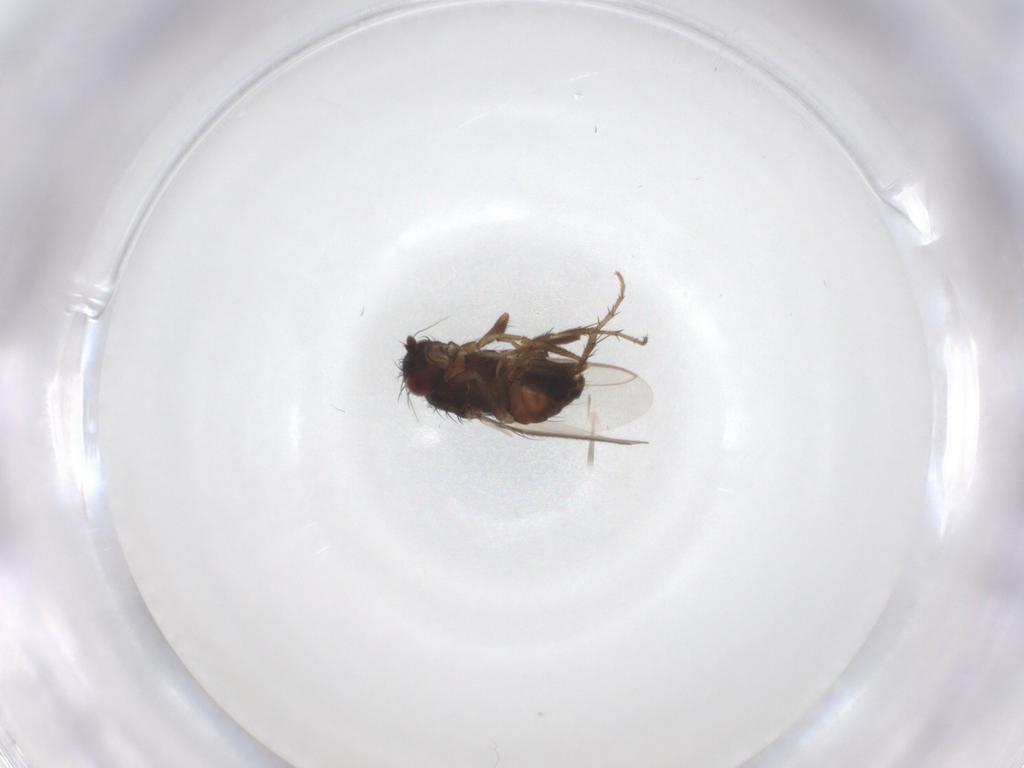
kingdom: Animalia
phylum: Arthropoda
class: Insecta
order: Diptera
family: Sphaeroceridae
